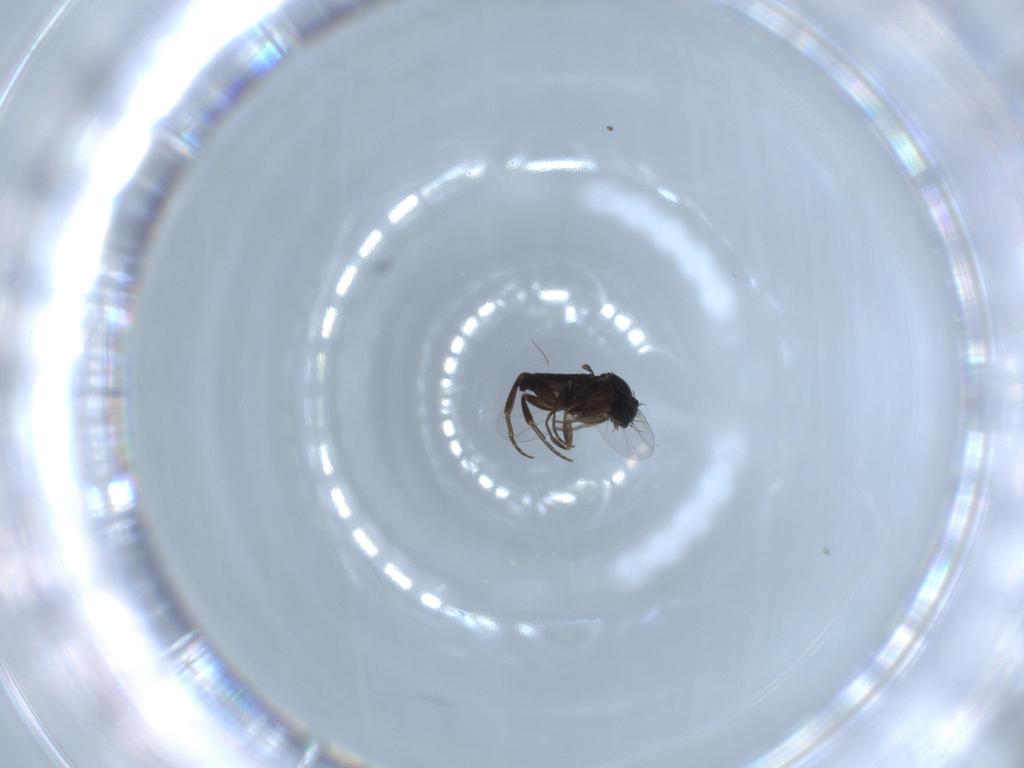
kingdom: Animalia
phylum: Arthropoda
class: Insecta
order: Diptera
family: Phoridae
